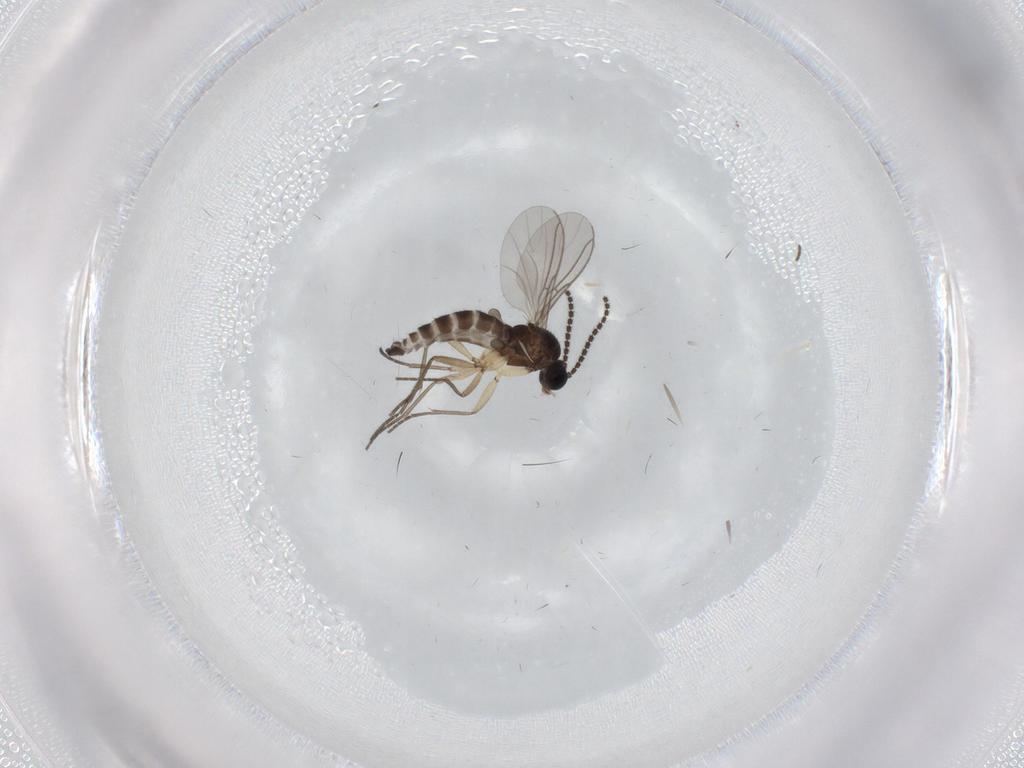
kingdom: Animalia
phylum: Arthropoda
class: Insecta
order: Diptera
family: Sciaridae
